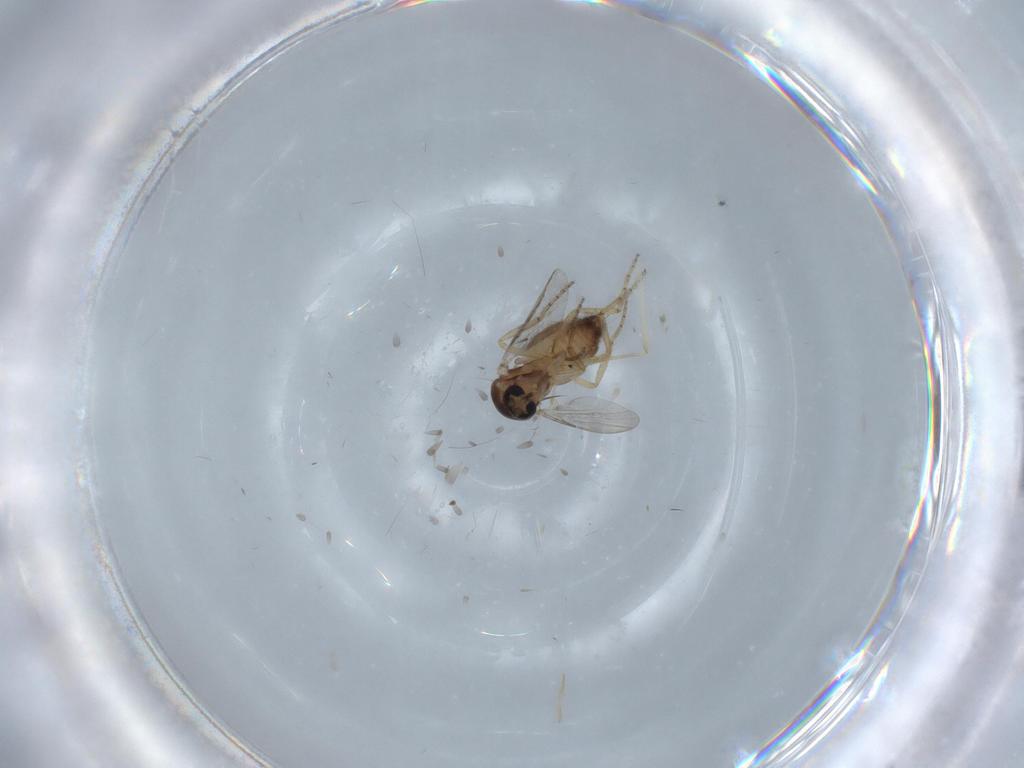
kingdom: Animalia
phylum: Arthropoda
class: Insecta
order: Diptera
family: Ceratopogonidae
